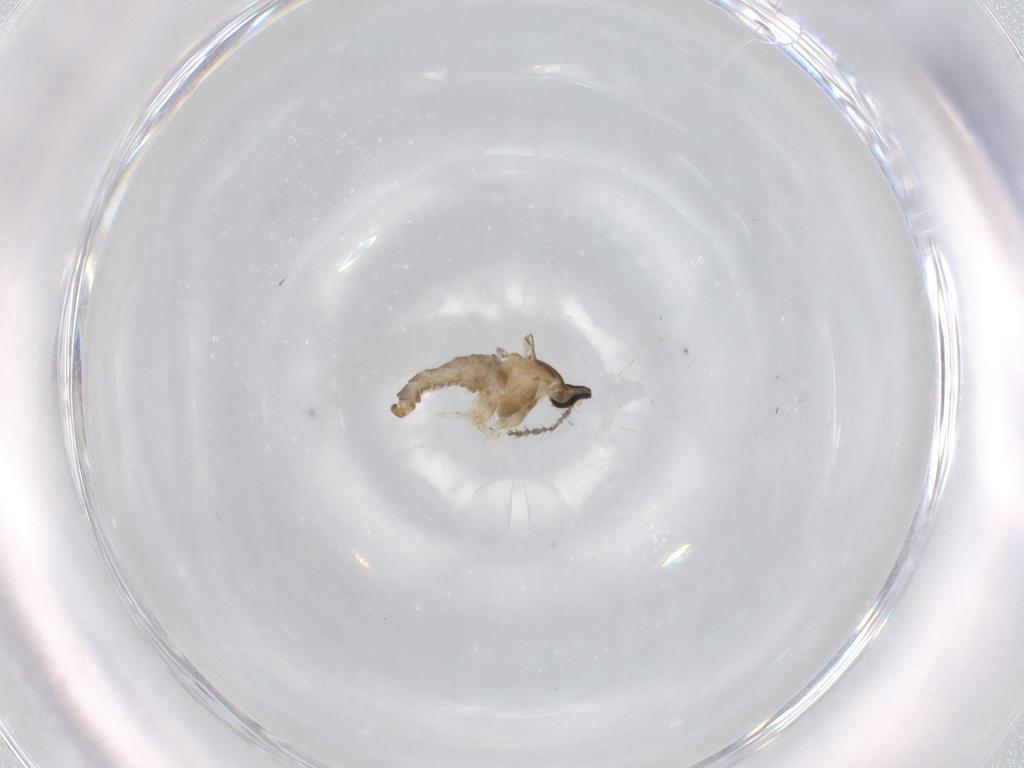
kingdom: Animalia
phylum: Arthropoda
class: Insecta
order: Diptera
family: Cecidomyiidae
